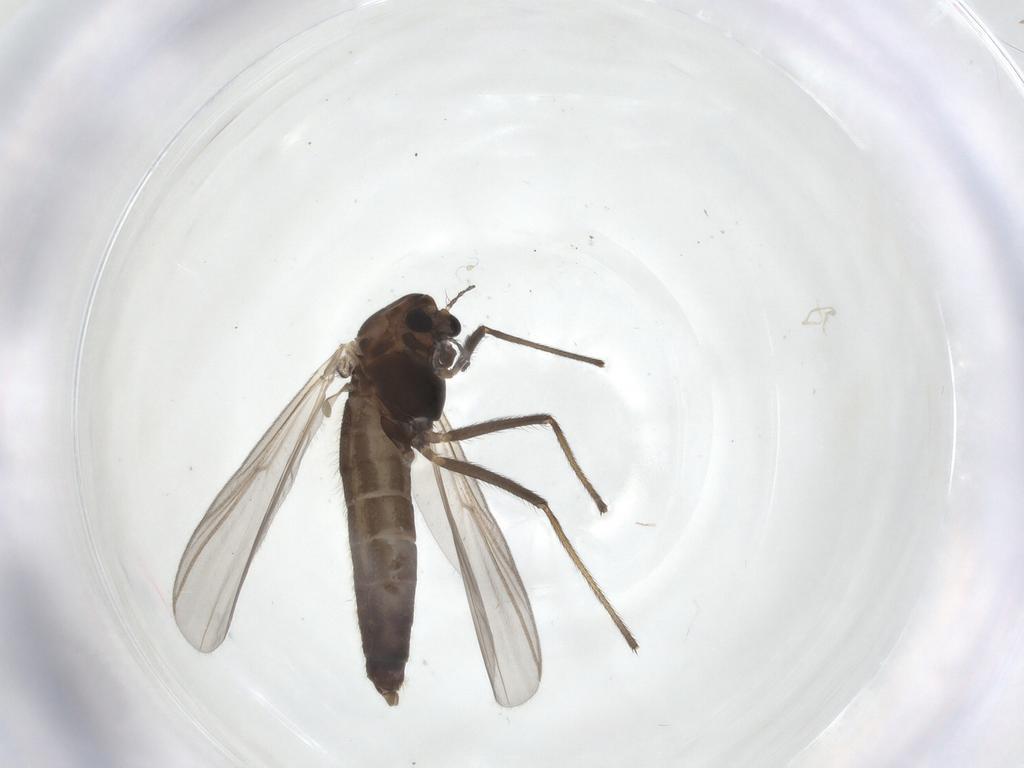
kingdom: Animalia
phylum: Arthropoda
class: Insecta
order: Diptera
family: Chironomidae
